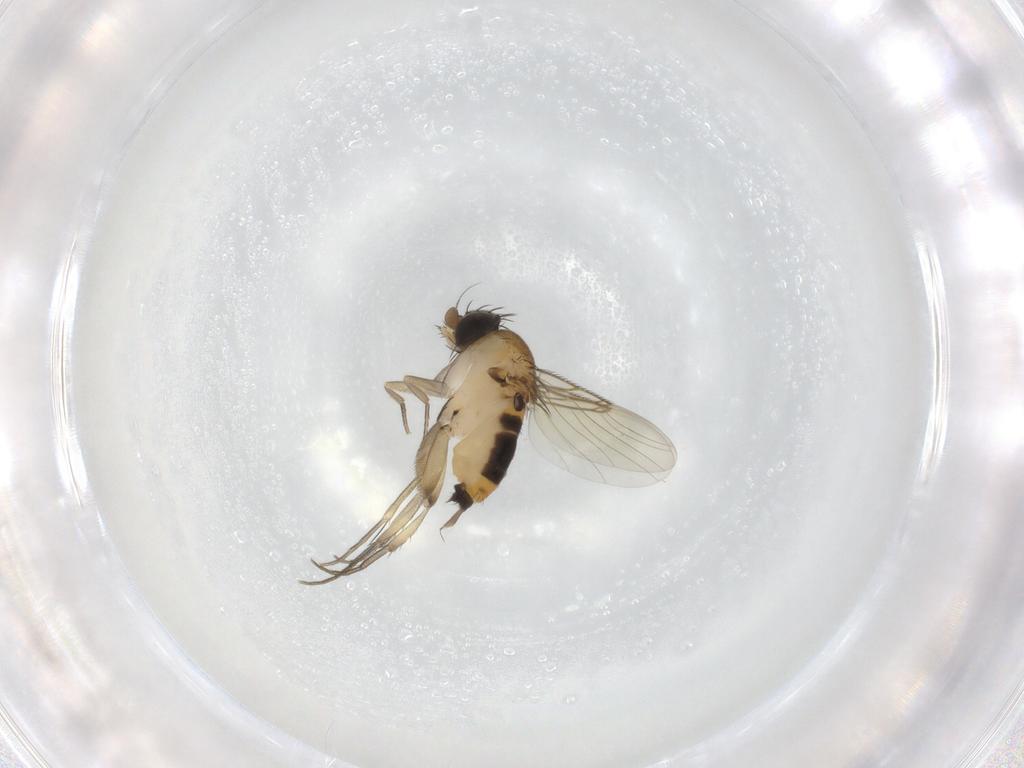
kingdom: Animalia
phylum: Arthropoda
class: Insecta
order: Diptera
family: Phoridae
